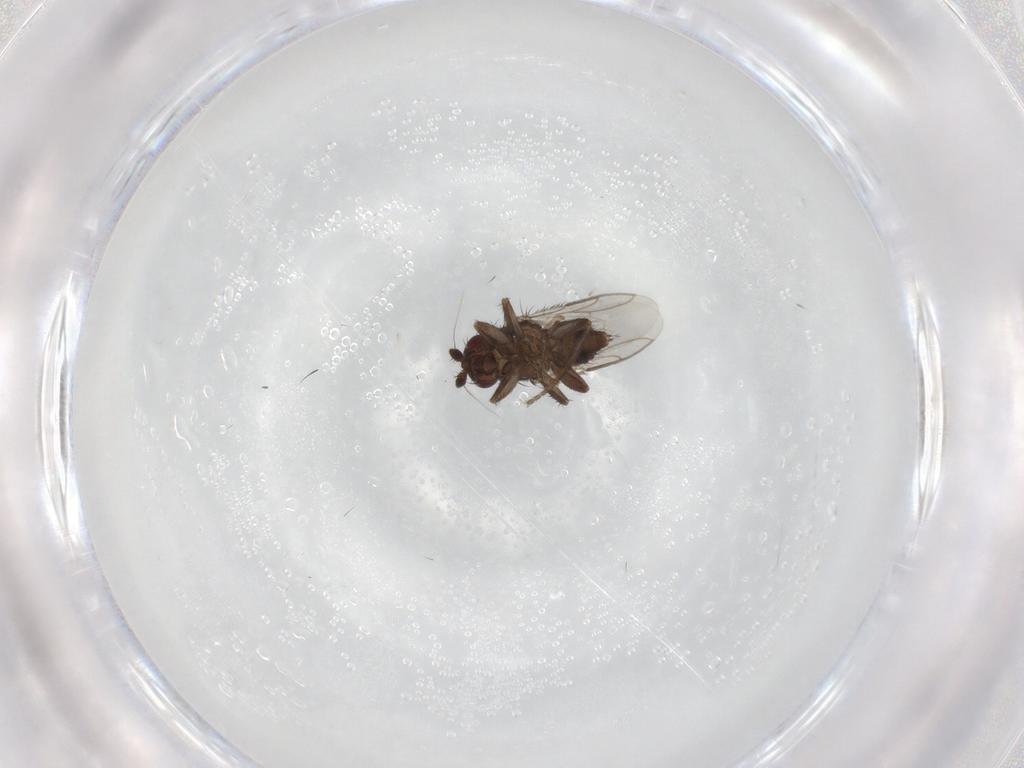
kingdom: Animalia
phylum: Arthropoda
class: Insecta
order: Diptera
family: Sphaeroceridae
